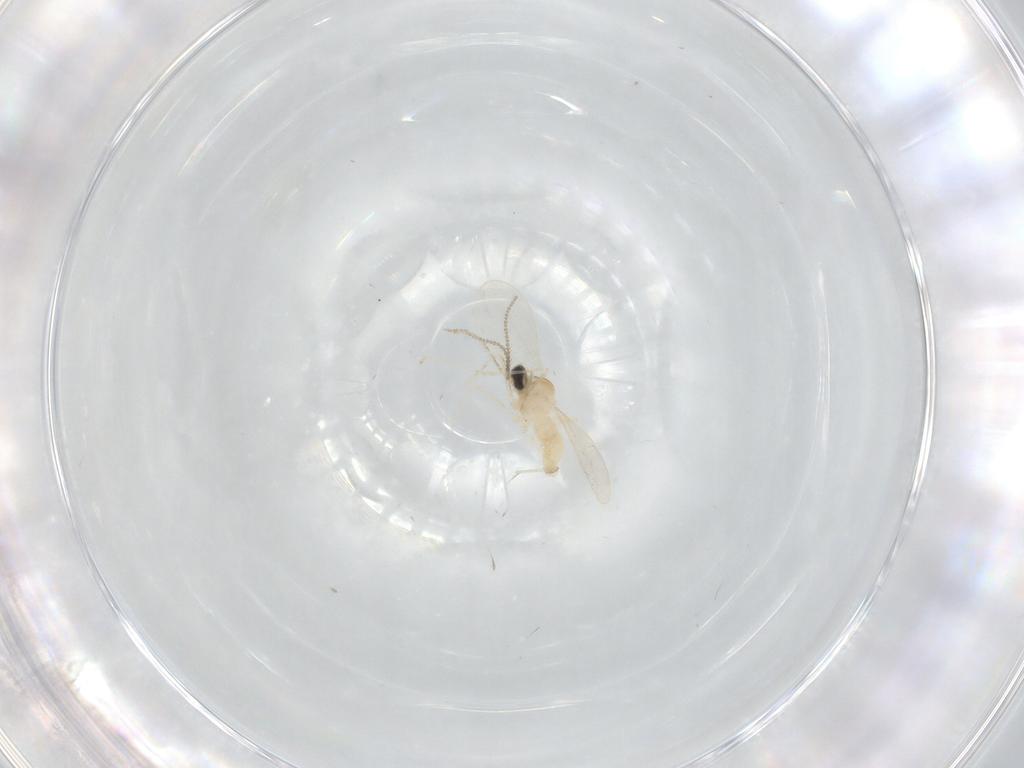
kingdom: Animalia
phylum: Arthropoda
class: Insecta
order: Diptera
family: Cecidomyiidae
